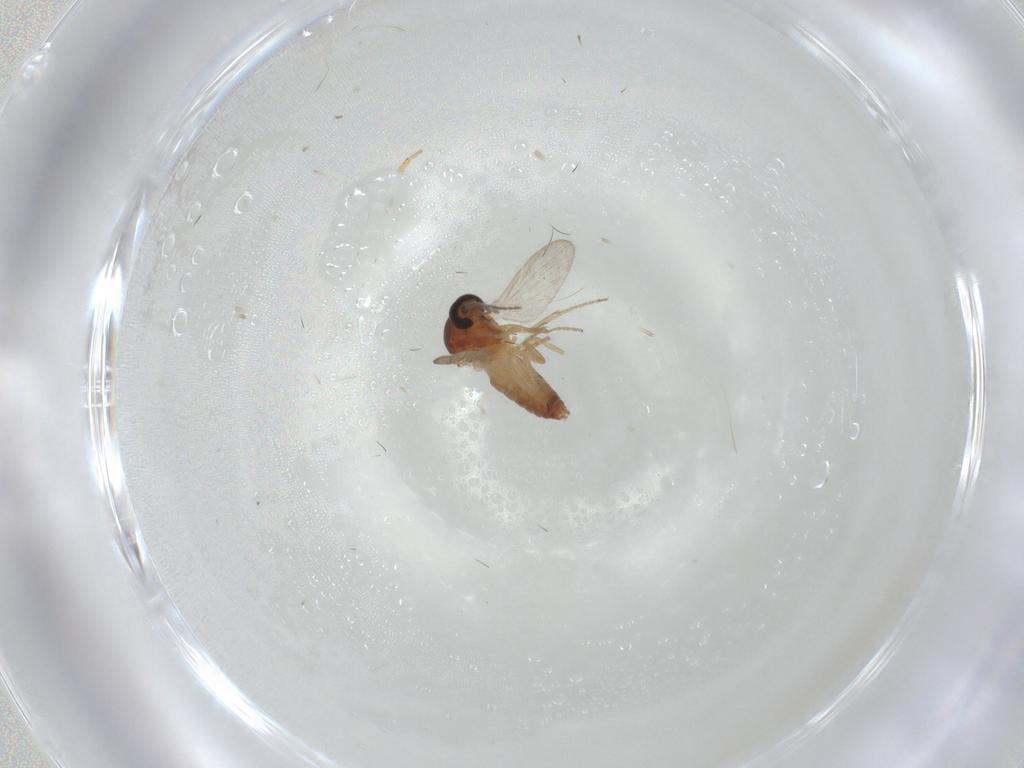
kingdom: Animalia
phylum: Arthropoda
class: Insecta
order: Diptera
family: Ceratopogonidae
